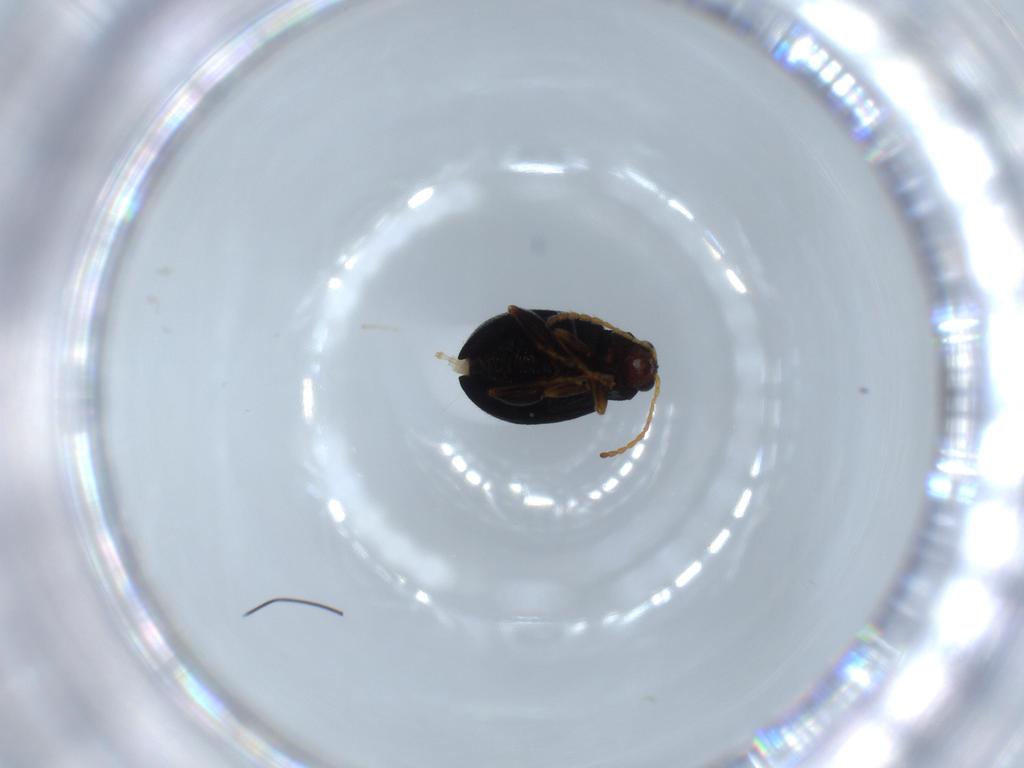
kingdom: Animalia
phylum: Arthropoda
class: Insecta
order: Coleoptera
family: Chrysomelidae
